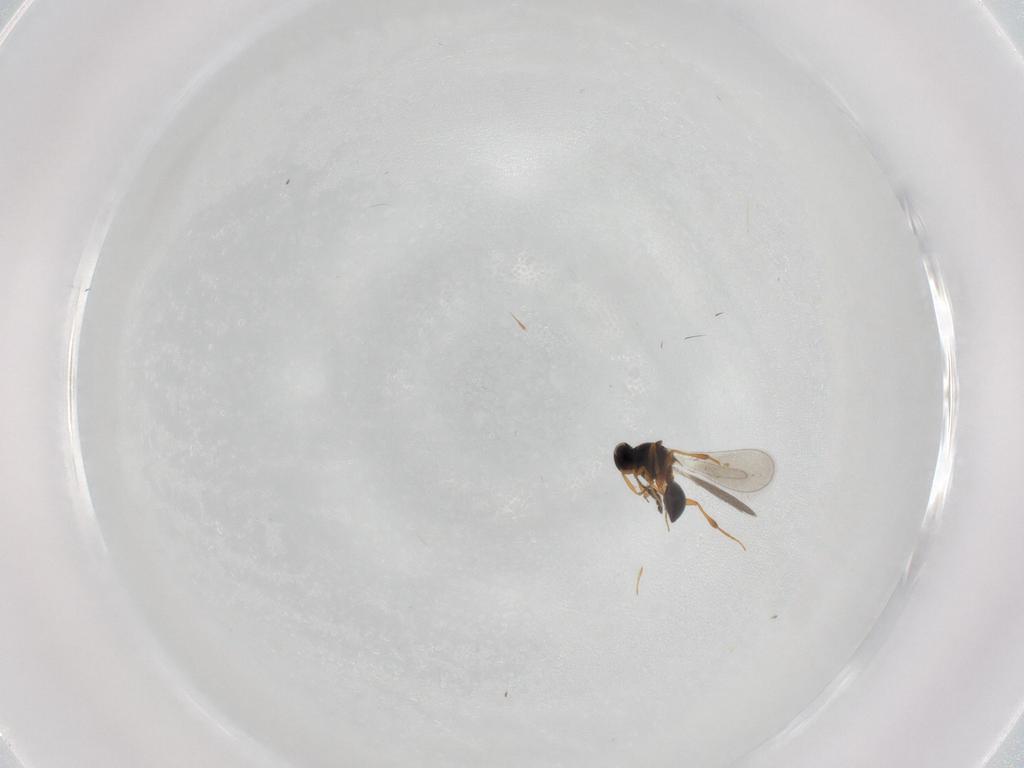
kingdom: Animalia
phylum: Arthropoda
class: Insecta
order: Hymenoptera
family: Platygastridae
